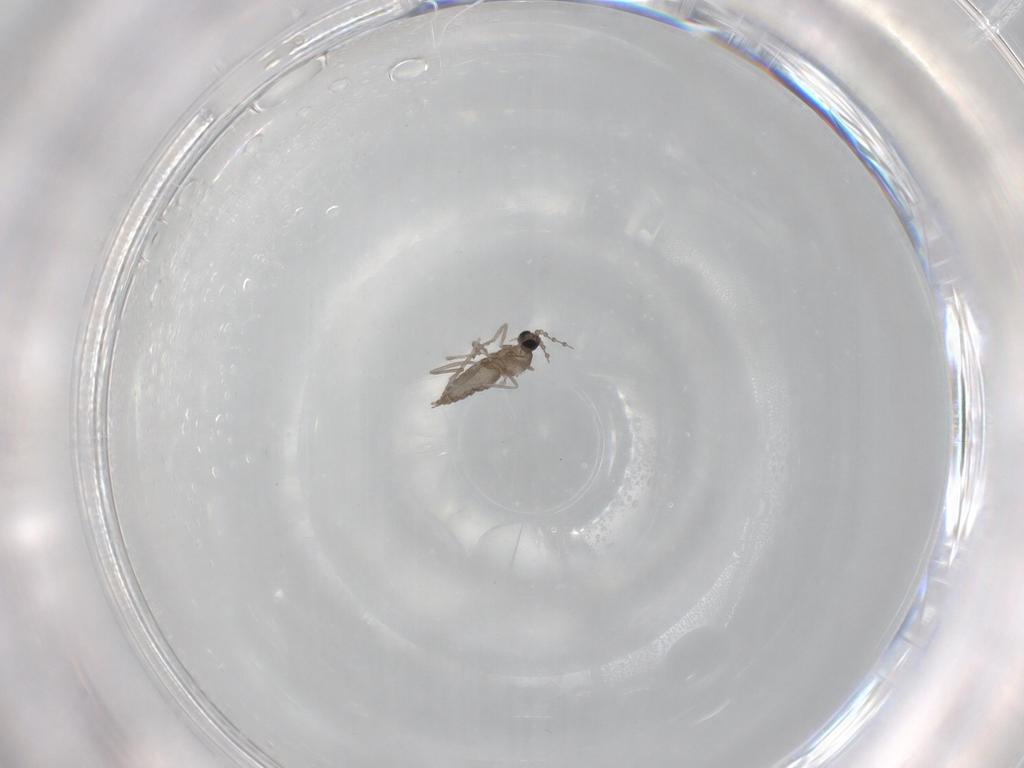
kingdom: Animalia
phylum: Arthropoda
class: Insecta
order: Diptera
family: Cecidomyiidae
